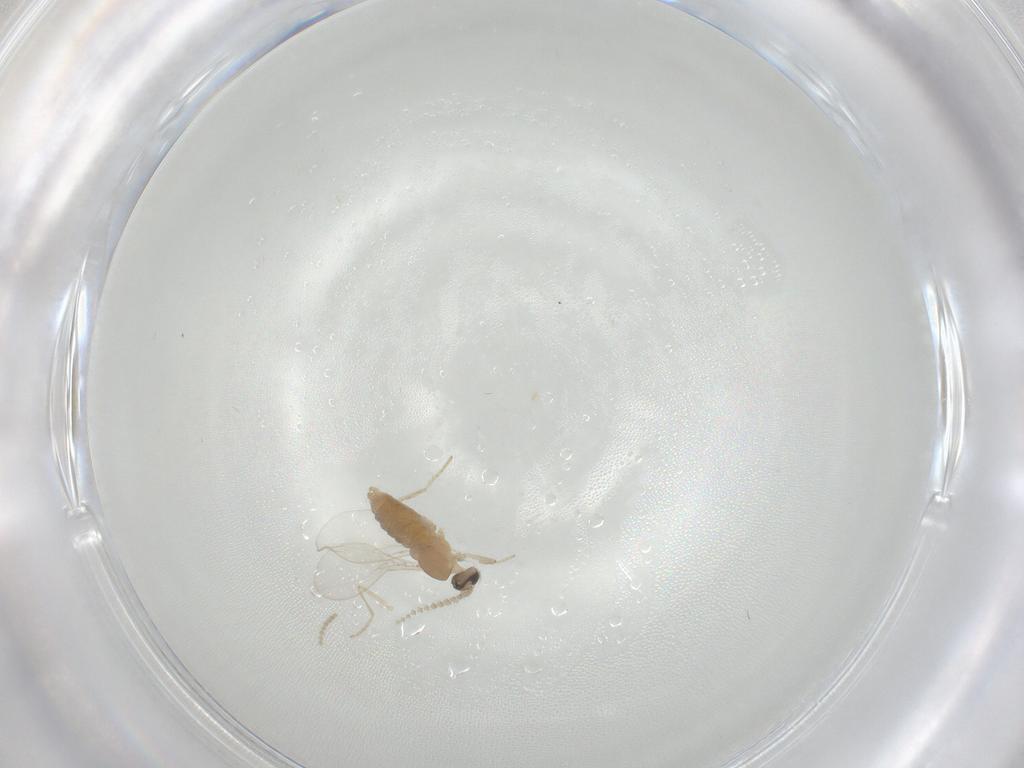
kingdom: Animalia
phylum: Arthropoda
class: Insecta
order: Diptera
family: Cecidomyiidae
